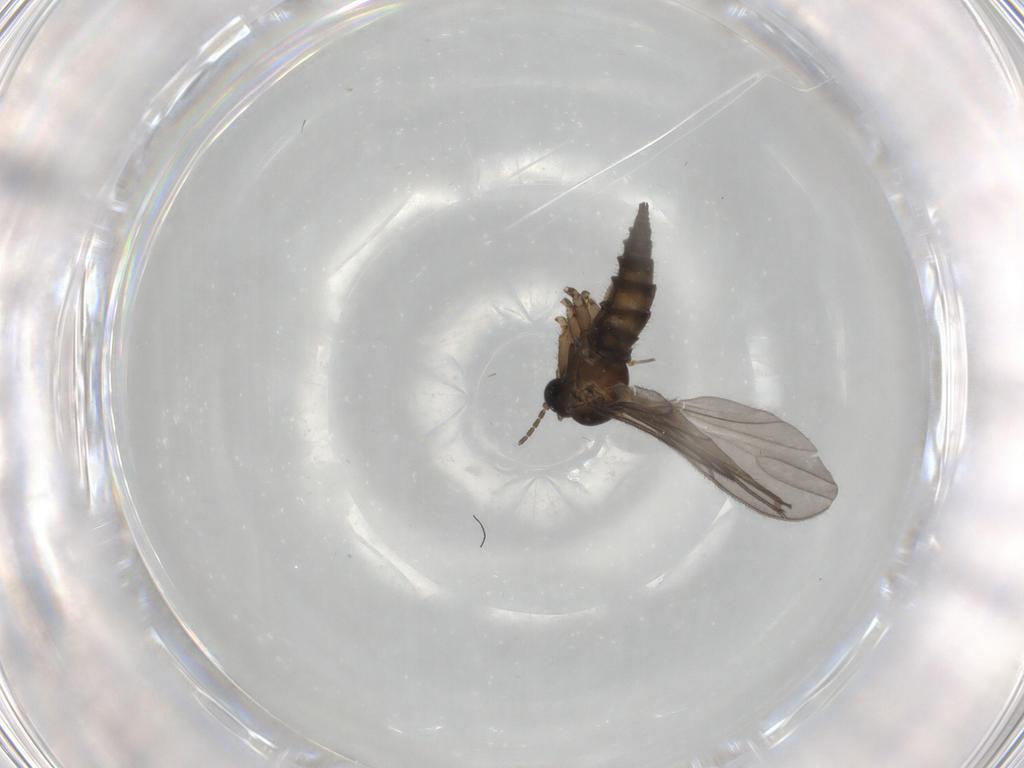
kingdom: Animalia
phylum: Arthropoda
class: Insecta
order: Diptera
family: Sciaridae
